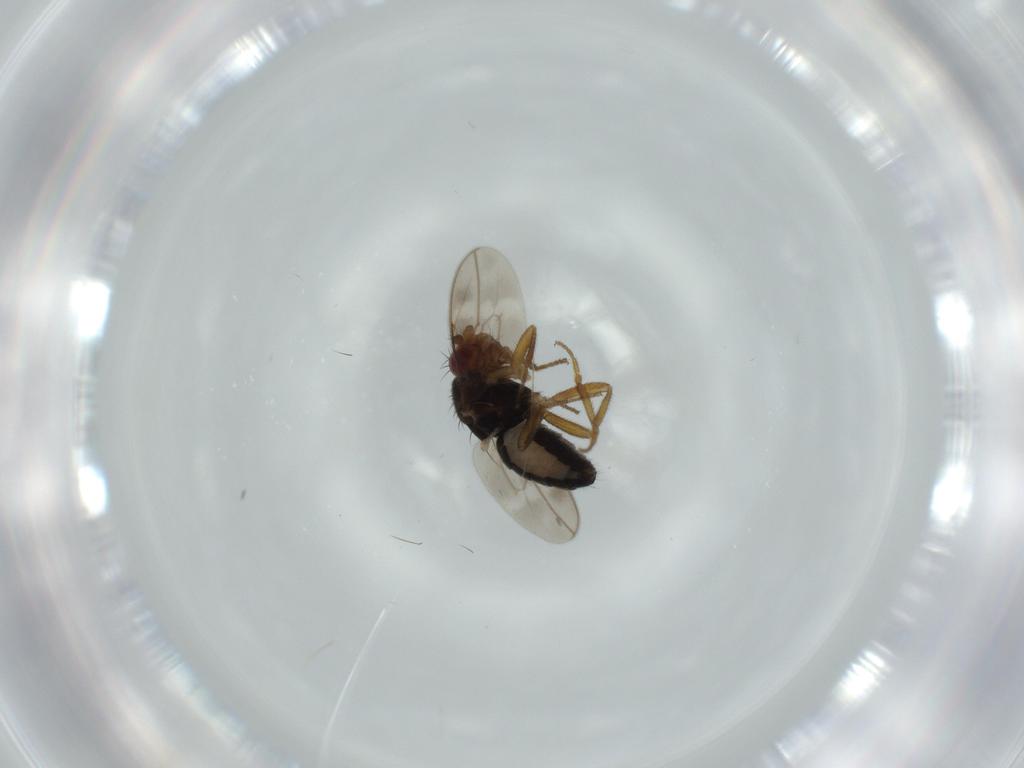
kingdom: Animalia
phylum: Arthropoda
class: Insecta
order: Diptera
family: Sphaeroceridae
